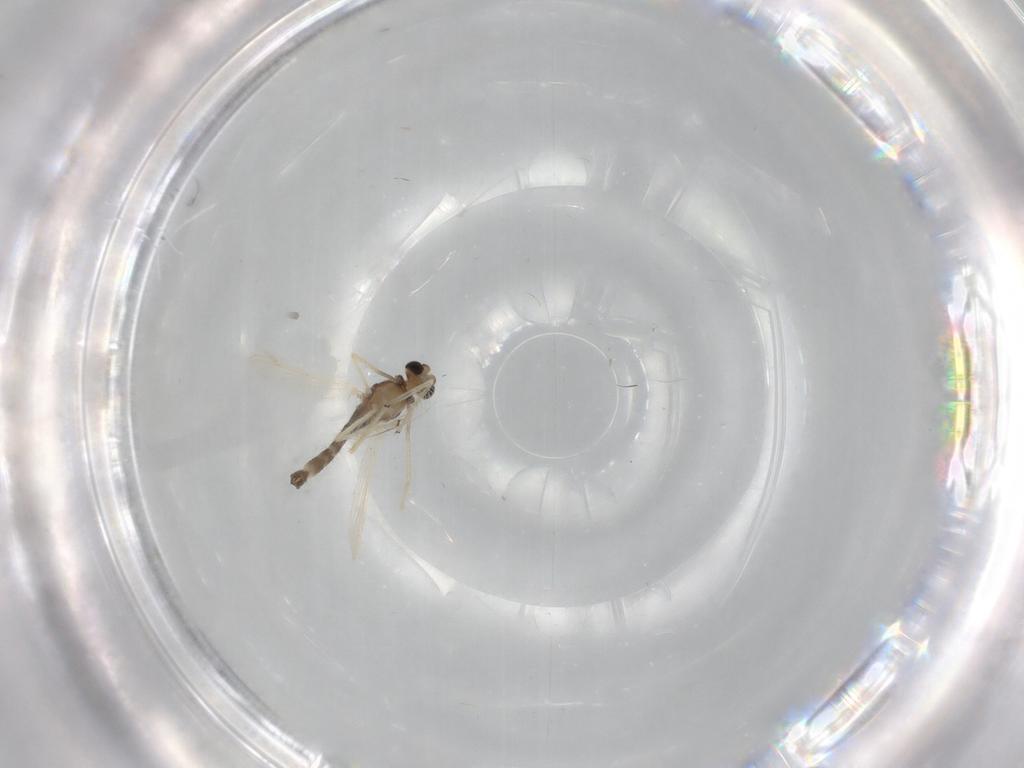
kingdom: Animalia
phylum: Arthropoda
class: Insecta
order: Diptera
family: Chironomidae
